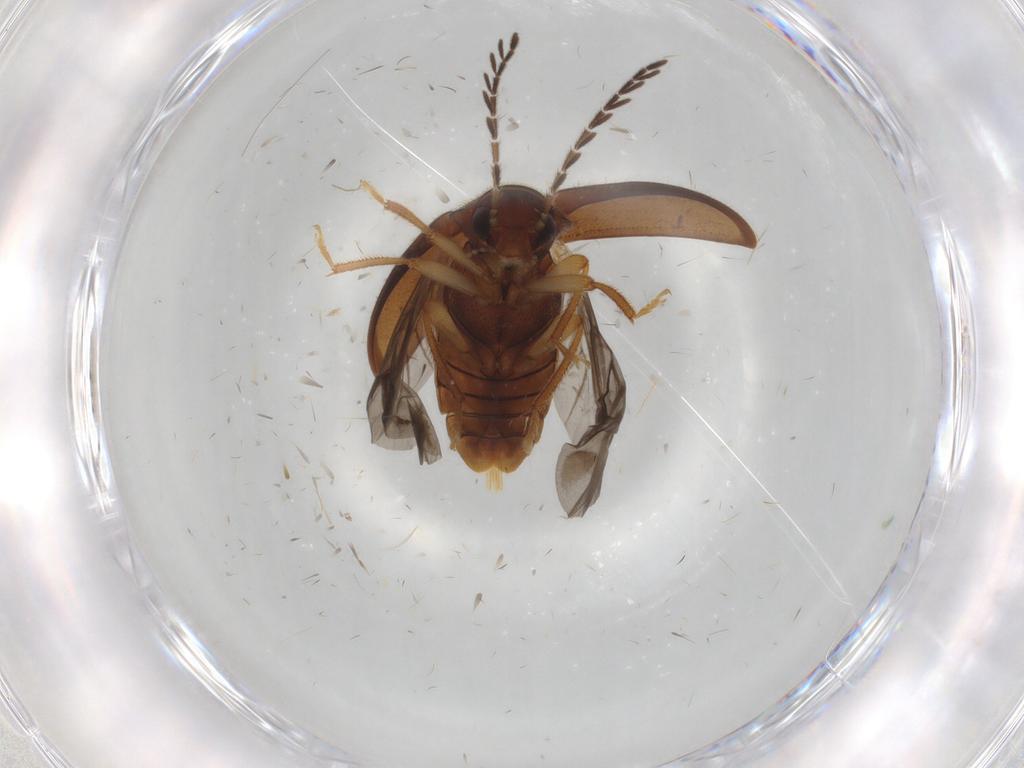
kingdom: Animalia
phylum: Arthropoda
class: Insecta
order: Coleoptera
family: Ptilodactylidae
